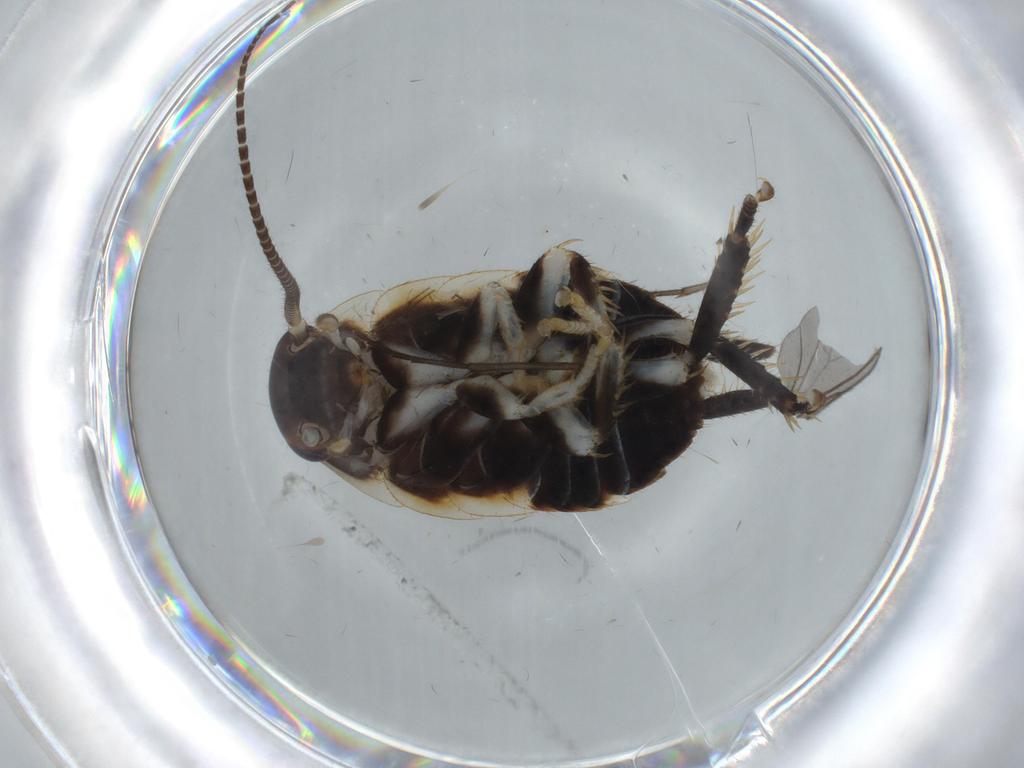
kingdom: Animalia
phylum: Arthropoda
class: Insecta
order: Blattodea
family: Ectobiidae
